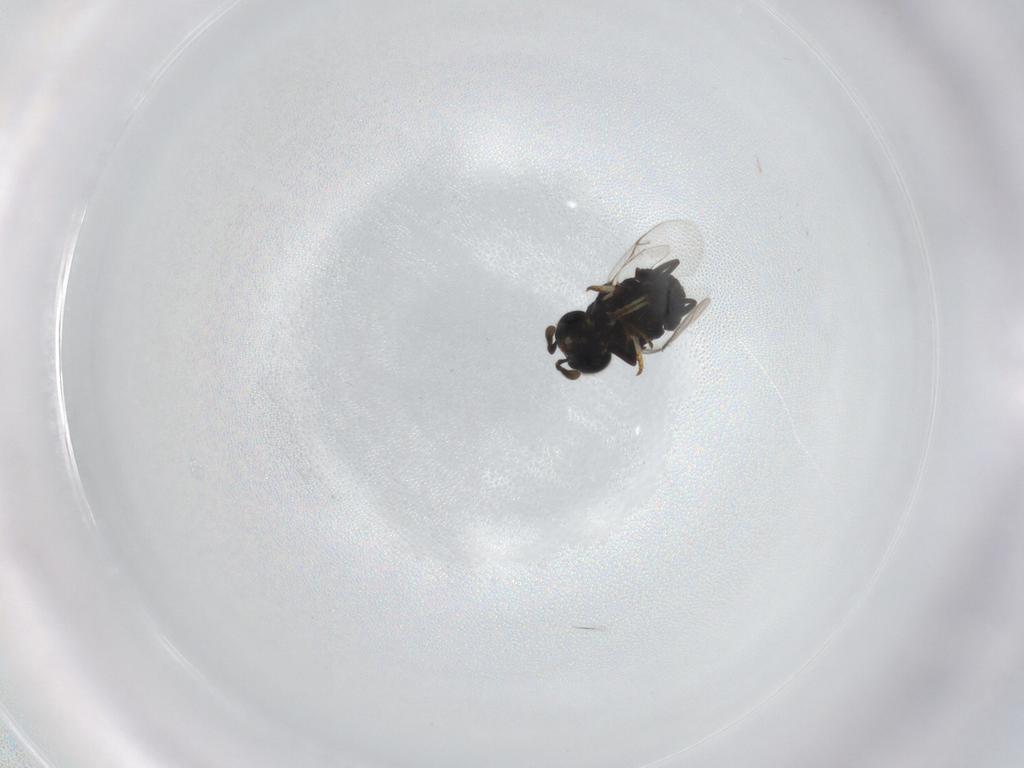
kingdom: Animalia
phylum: Arthropoda
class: Insecta
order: Hymenoptera
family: Encyrtidae
